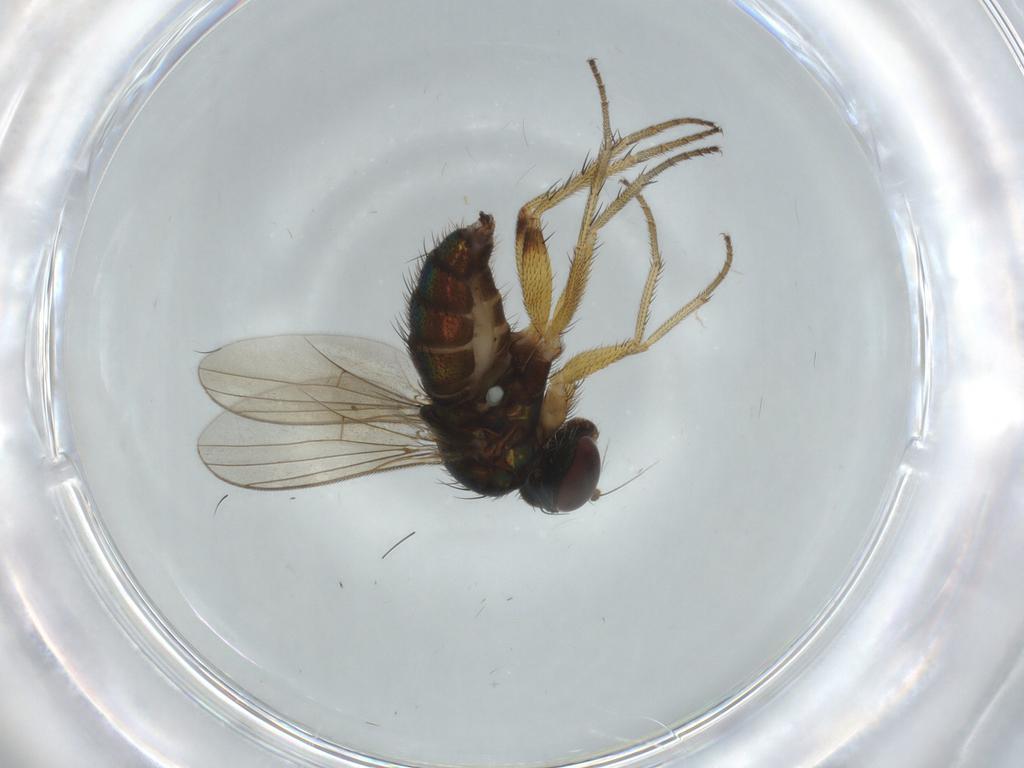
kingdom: Animalia
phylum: Arthropoda
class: Insecta
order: Diptera
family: Dolichopodidae
